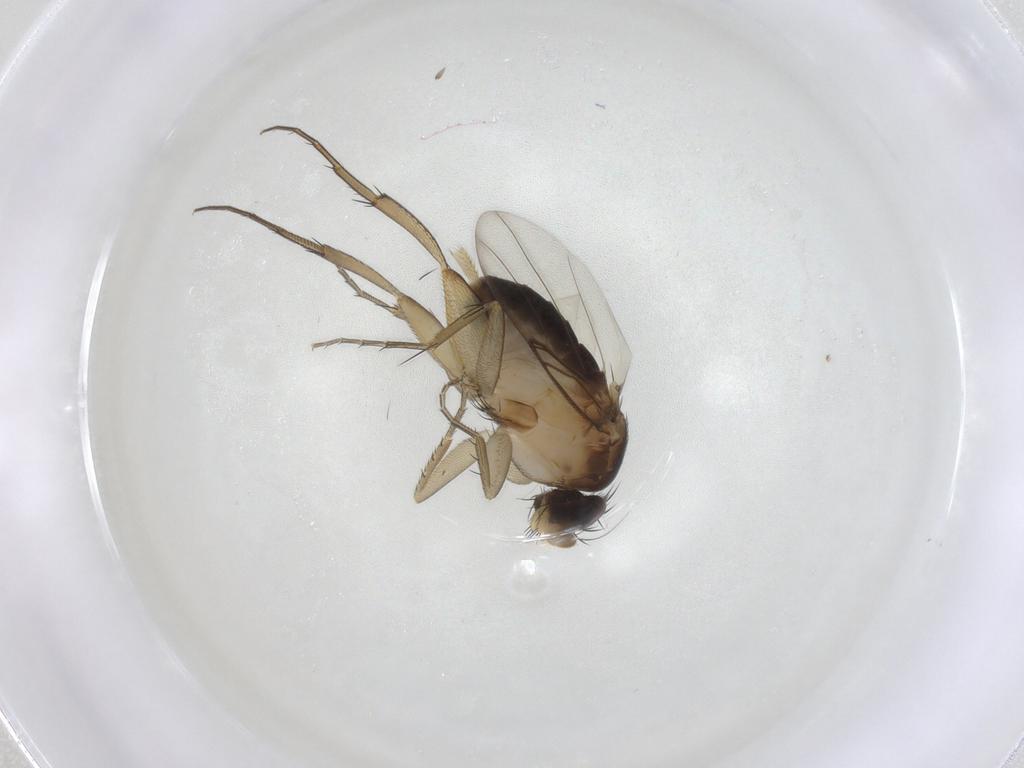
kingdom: Animalia
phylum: Arthropoda
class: Insecta
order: Diptera
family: Phoridae
